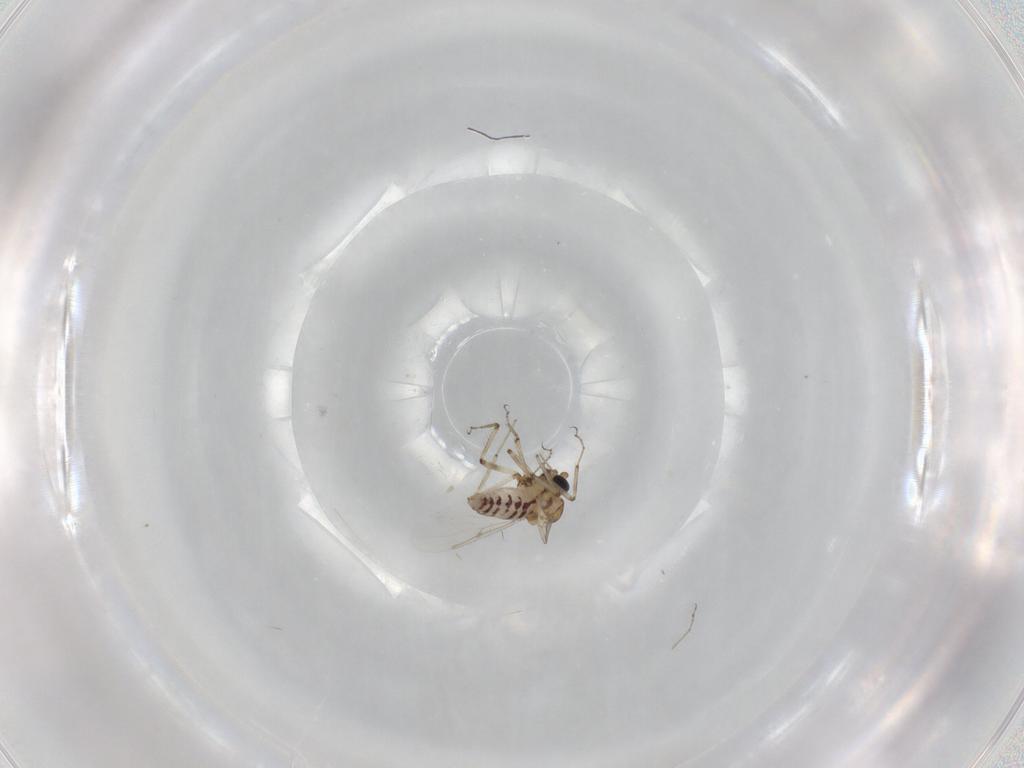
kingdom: Animalia
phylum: Arthropoda
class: Insecta
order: Diptera
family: Ceratopogonidae
